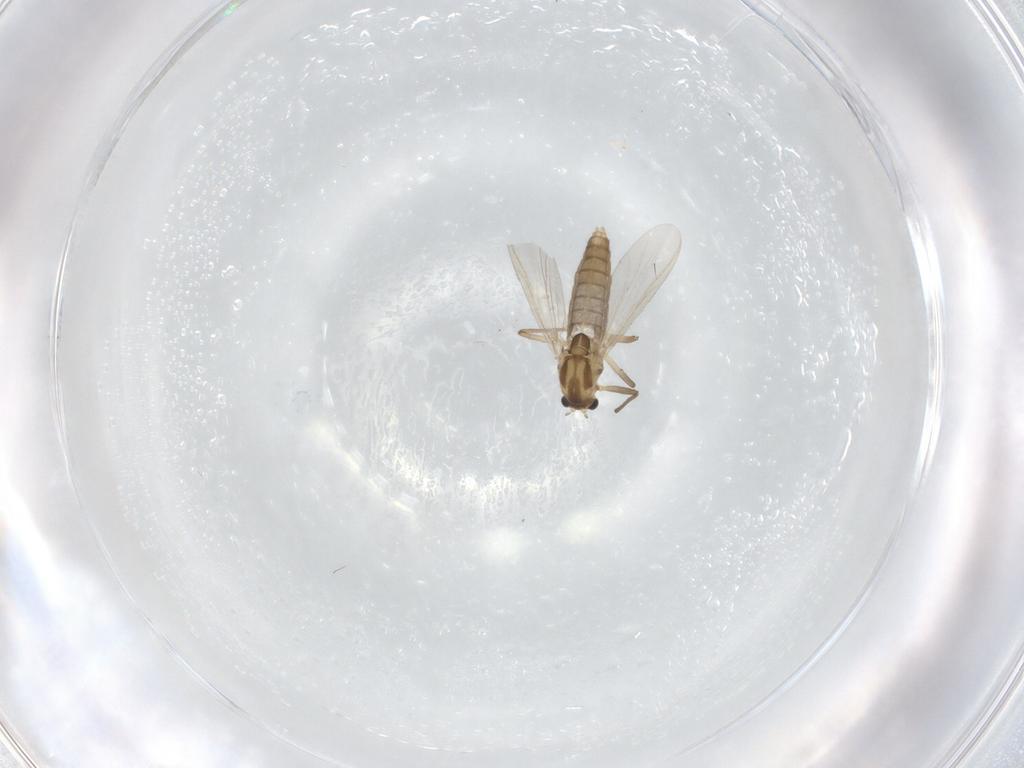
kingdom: Animalia
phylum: Arthropoda
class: Insecta
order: Diptera
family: Chironomidae
